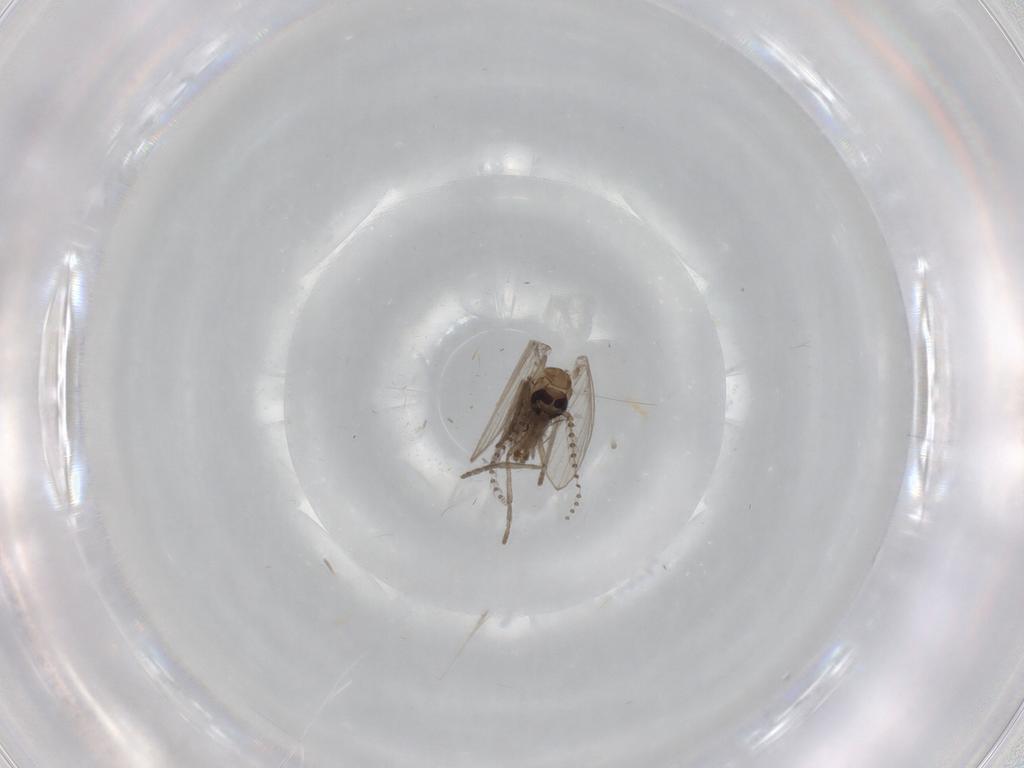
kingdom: Animalia
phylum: Arthropoda
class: Insecta
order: Diptera
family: Psychodidae
